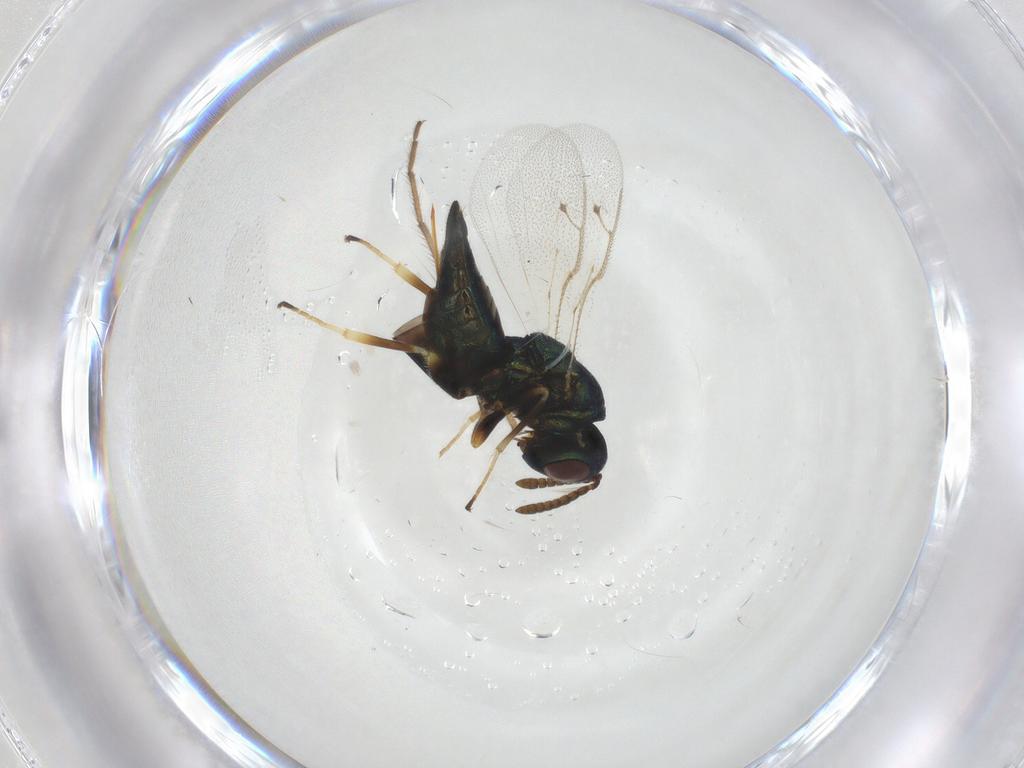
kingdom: Animalia
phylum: Arthropoda
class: Insecta
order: Hymenoptera
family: Pteromalidae
